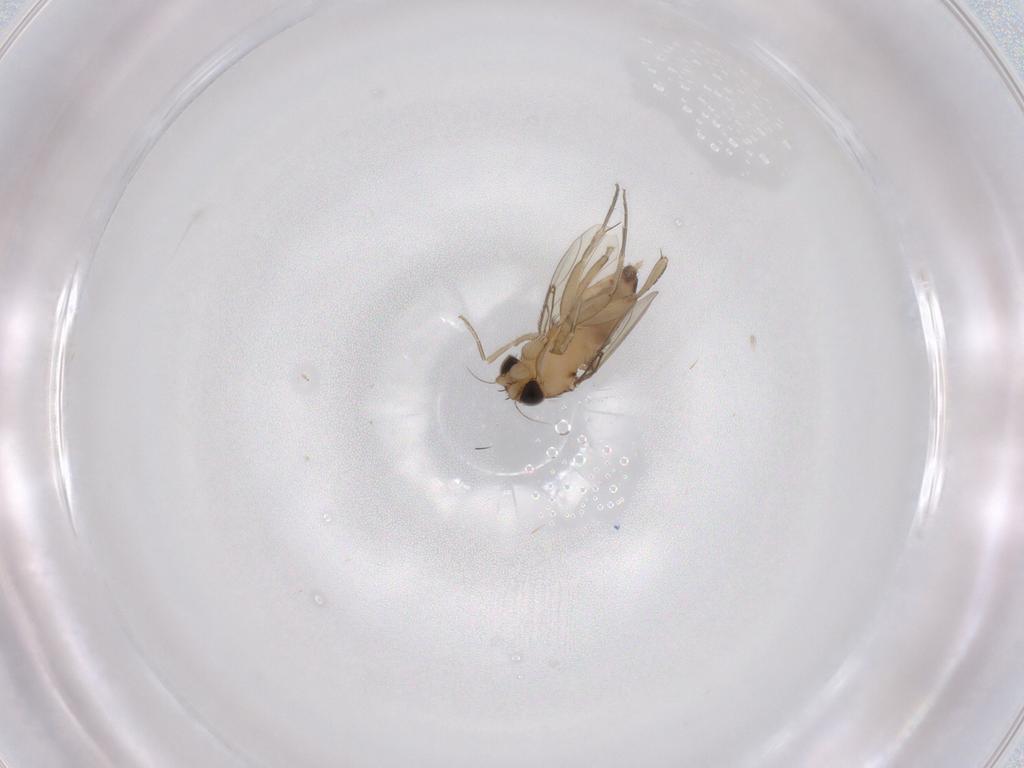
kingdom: Animalia
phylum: Arthropoda
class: Insecta
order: Diptera
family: Phoridae
